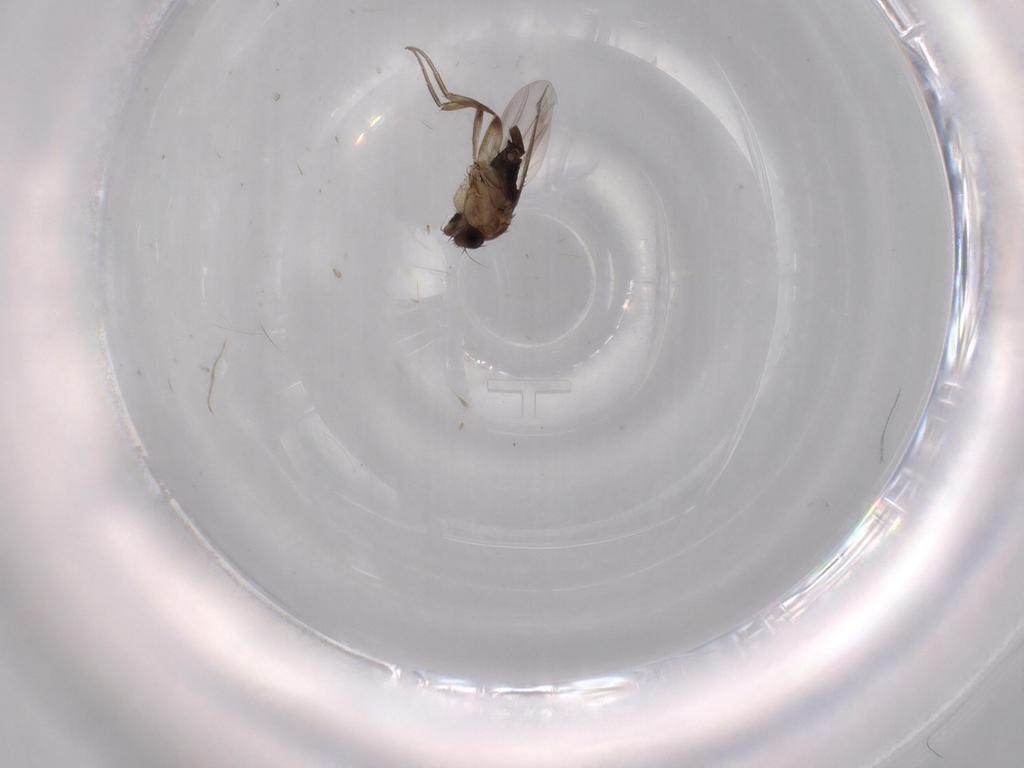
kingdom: Animalia
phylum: Arthropoda
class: Insecta
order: Diptera
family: Phoridae
